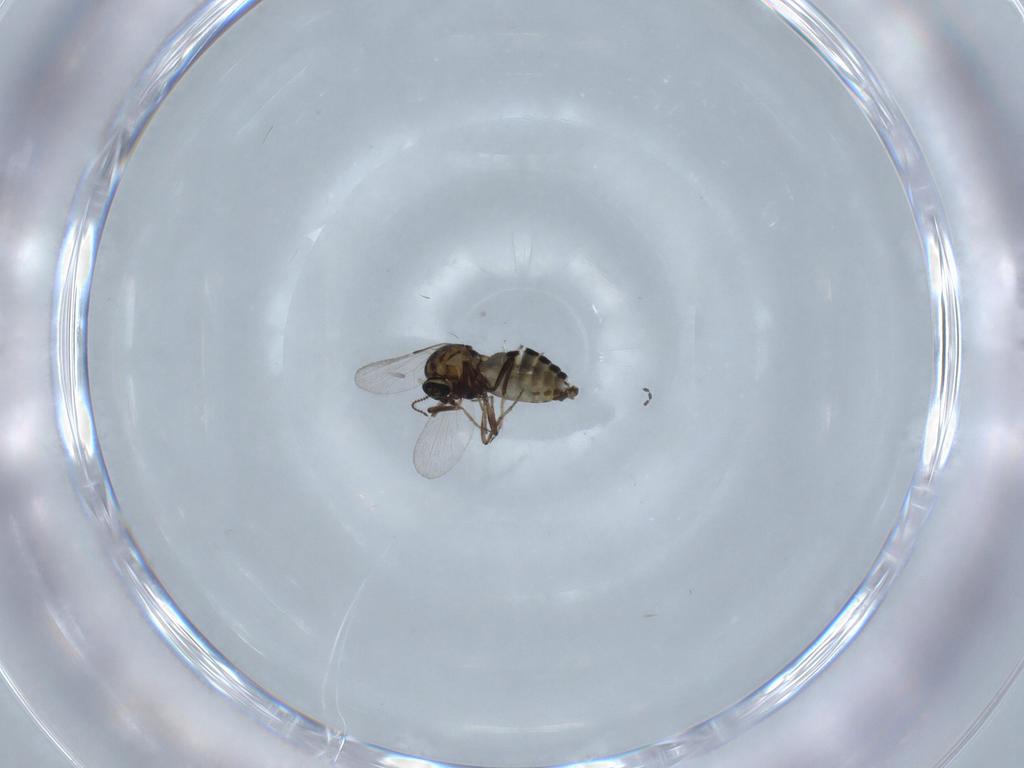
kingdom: Animalia
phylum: Arthropoda
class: Insecta
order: Diptera
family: Ceratopogonidae
